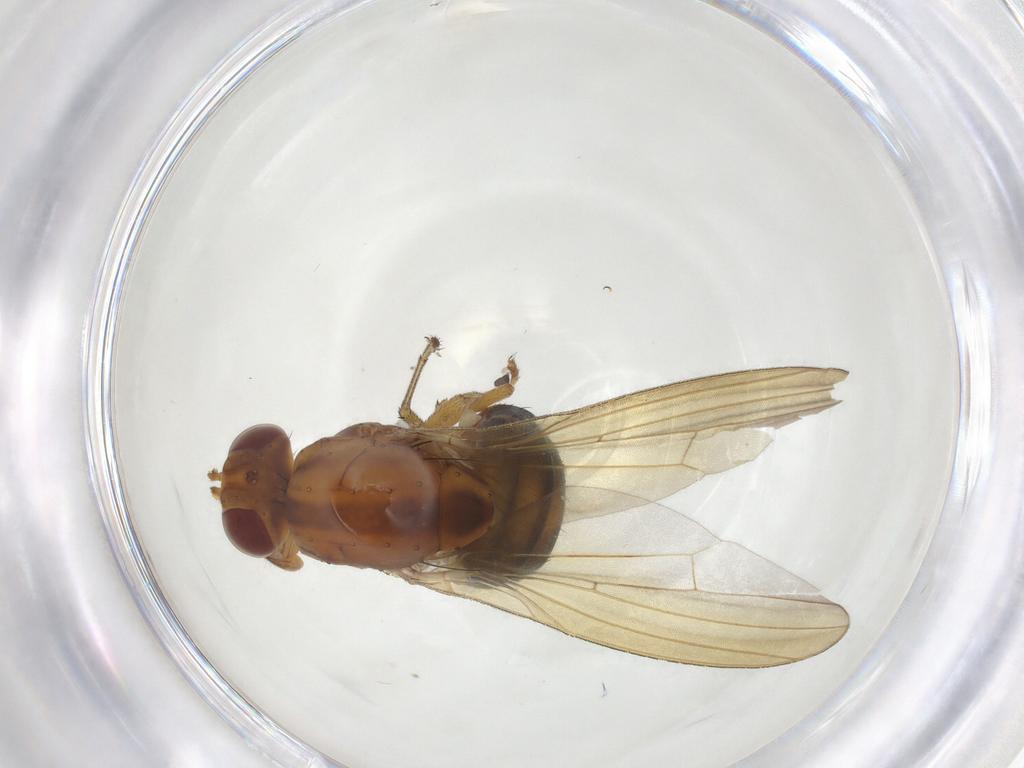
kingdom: Animalia
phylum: Arthropoda
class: Insecta
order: Diptera
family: Lauxaniidae
